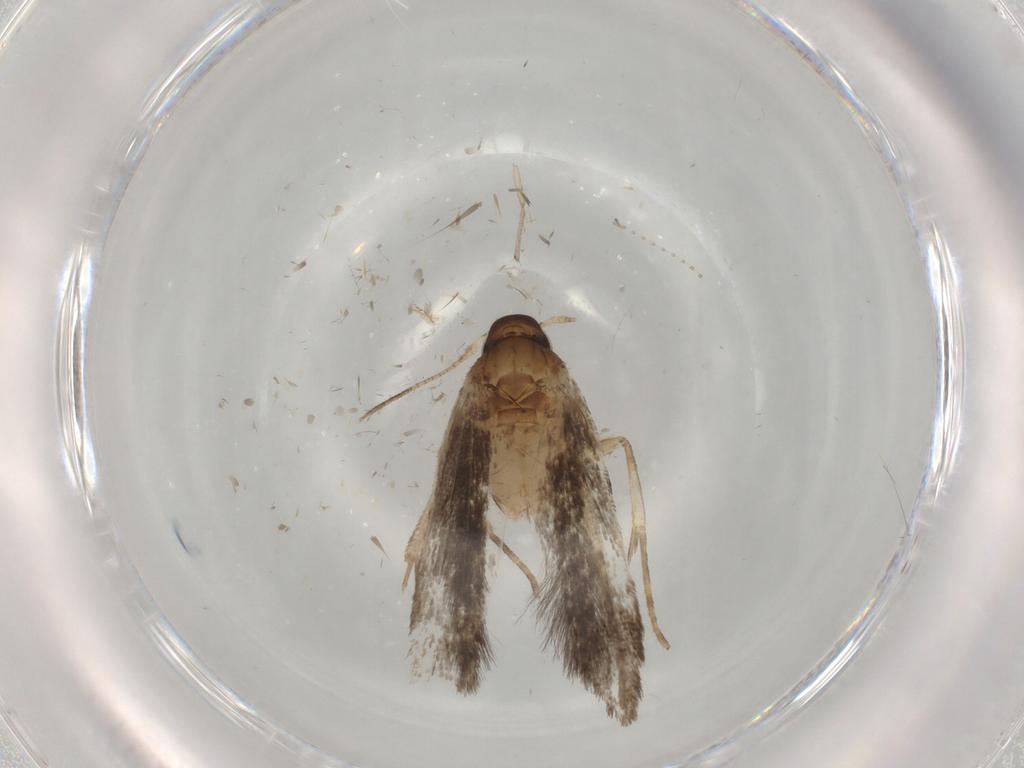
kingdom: Animalia
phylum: Arthropoda
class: Insecta
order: Lepidoptera
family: Gelechiidae
